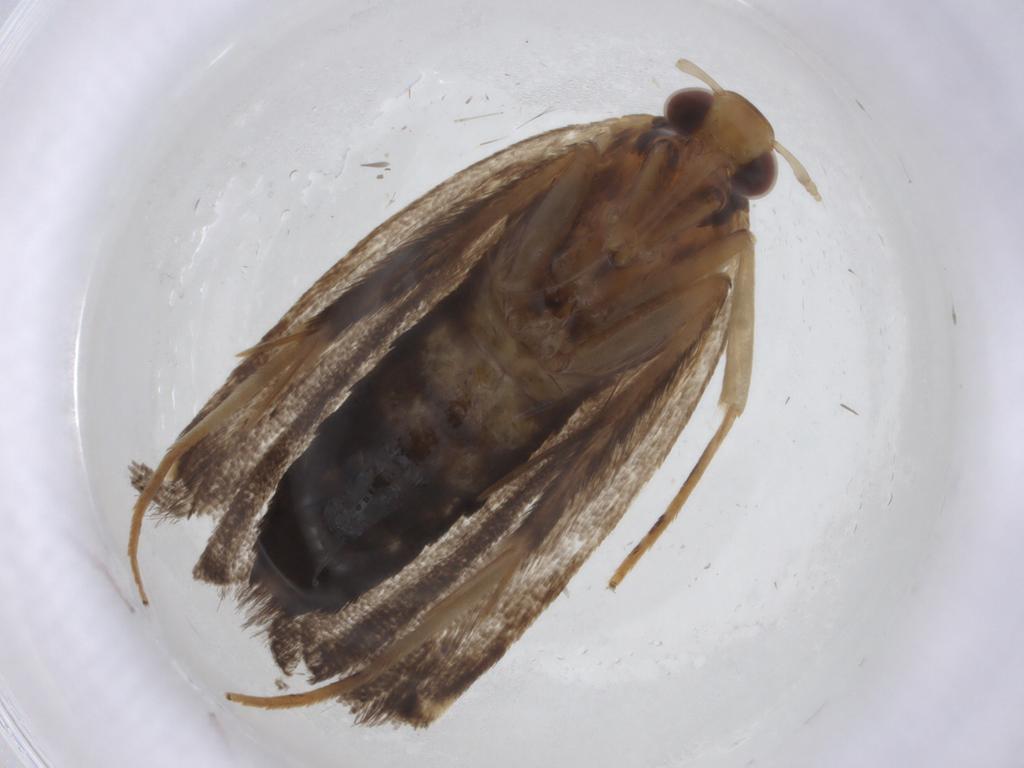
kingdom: Animalia
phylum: Arthropoda
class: Insecta
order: Lepidoptera
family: Lecithoceridae
